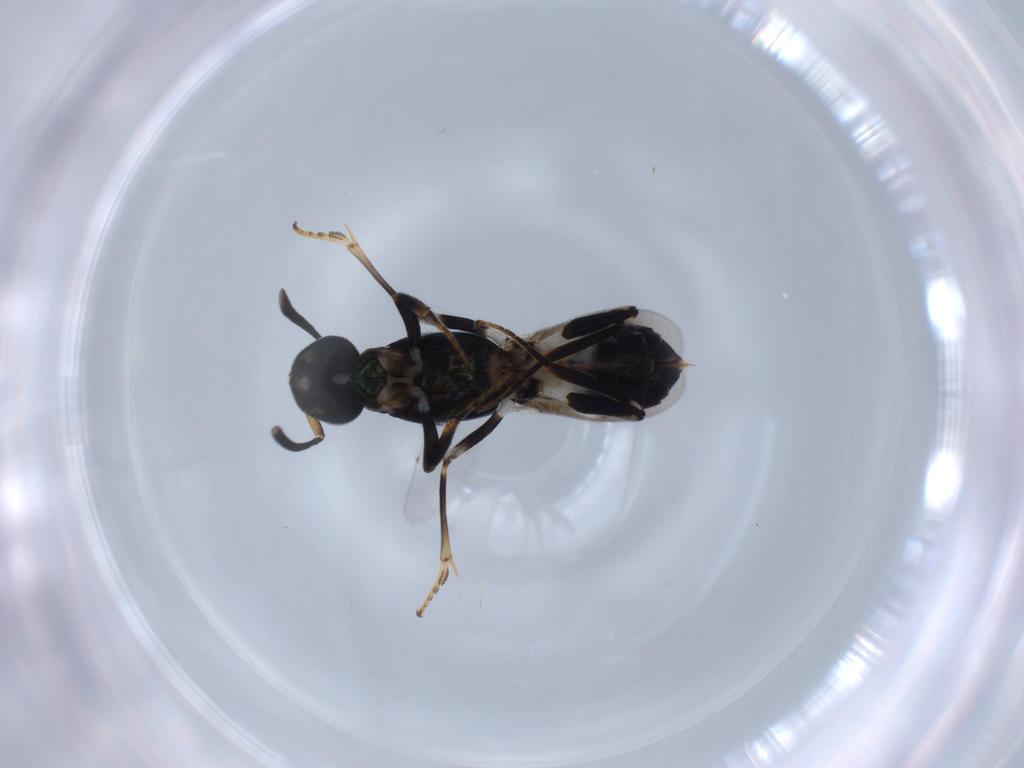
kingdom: Animalia
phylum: Arthropoda
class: Insecta
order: Hymenoptera
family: Eupelmidae
